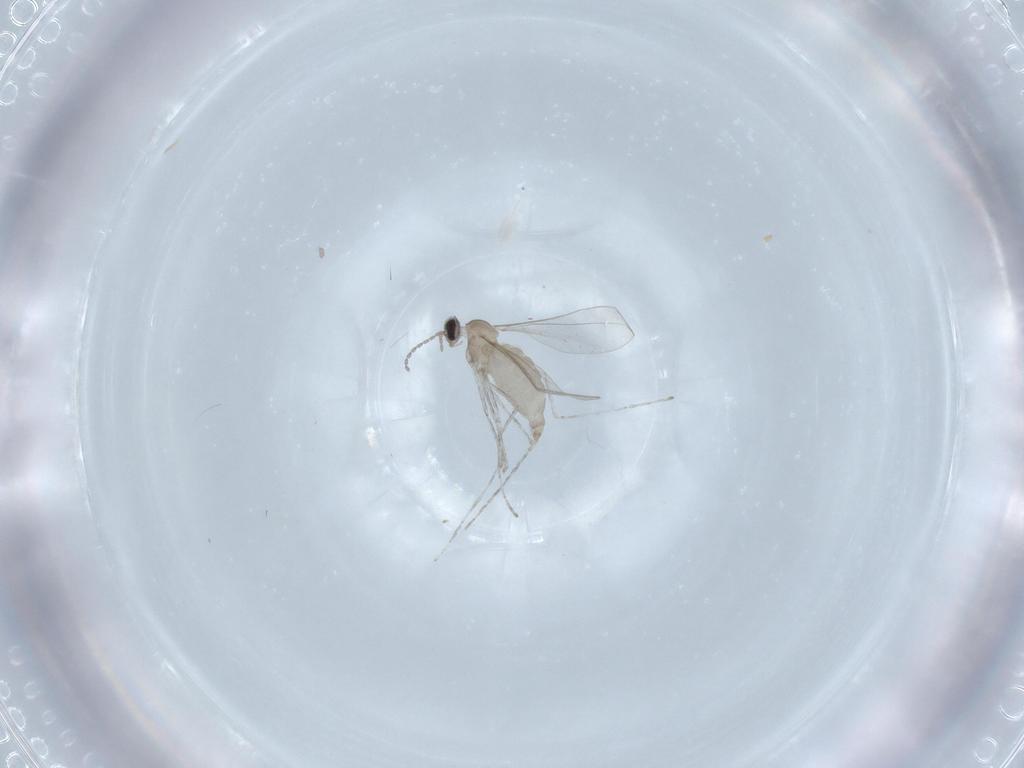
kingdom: Animalia
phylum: Arthropoda
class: Insecta
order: Diptera
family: Cecidomyiidae
